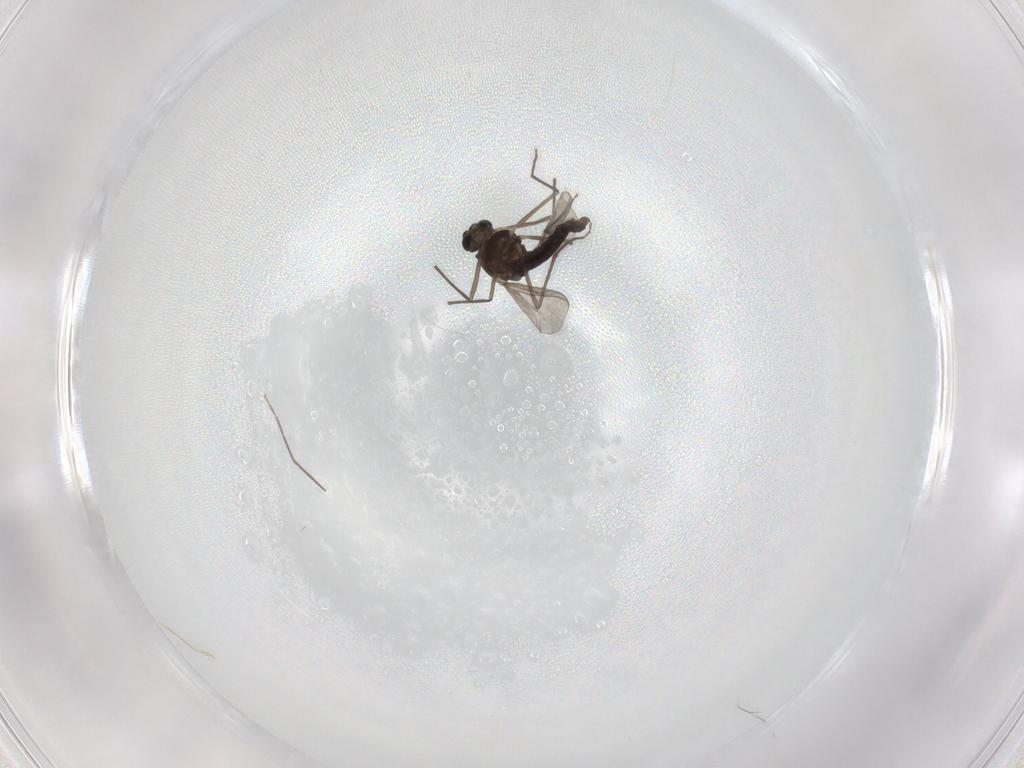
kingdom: Animalia
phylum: Arthropoda
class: Insecta
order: Diptera
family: Chironomidae
